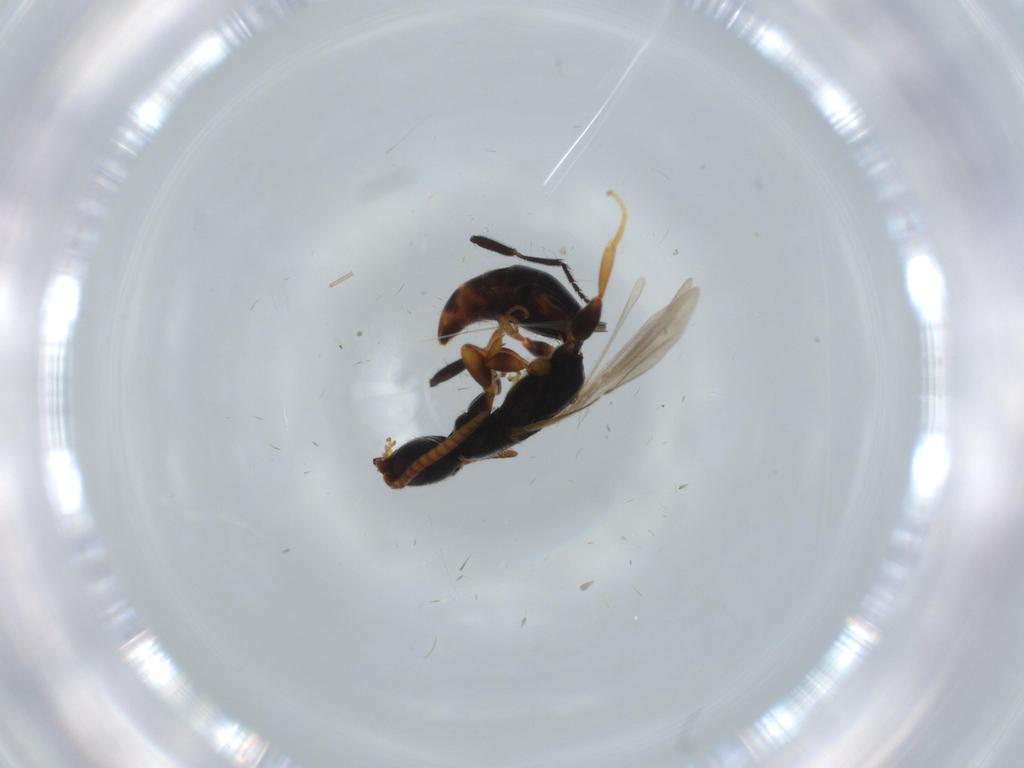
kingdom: Animalia
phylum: Arthropoda
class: Insecta
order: Hymenoptera
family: Bethylidae
